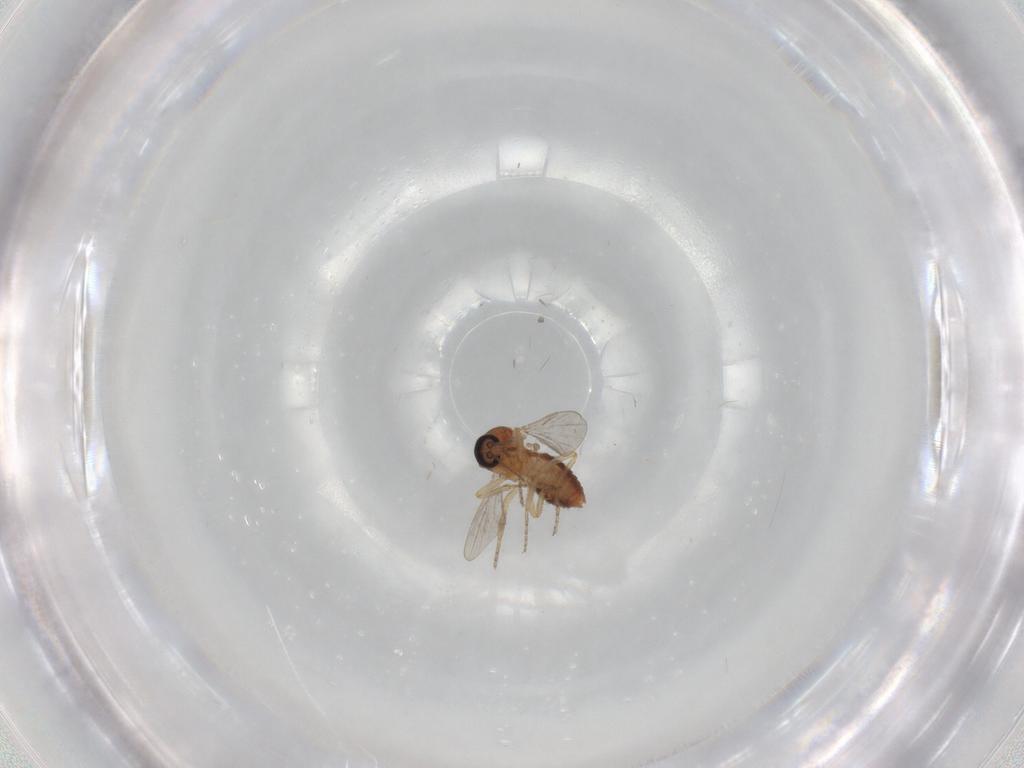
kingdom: Animalia
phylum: Arthropoda
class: Insecta
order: Diptera
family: Ceratopogonidae
